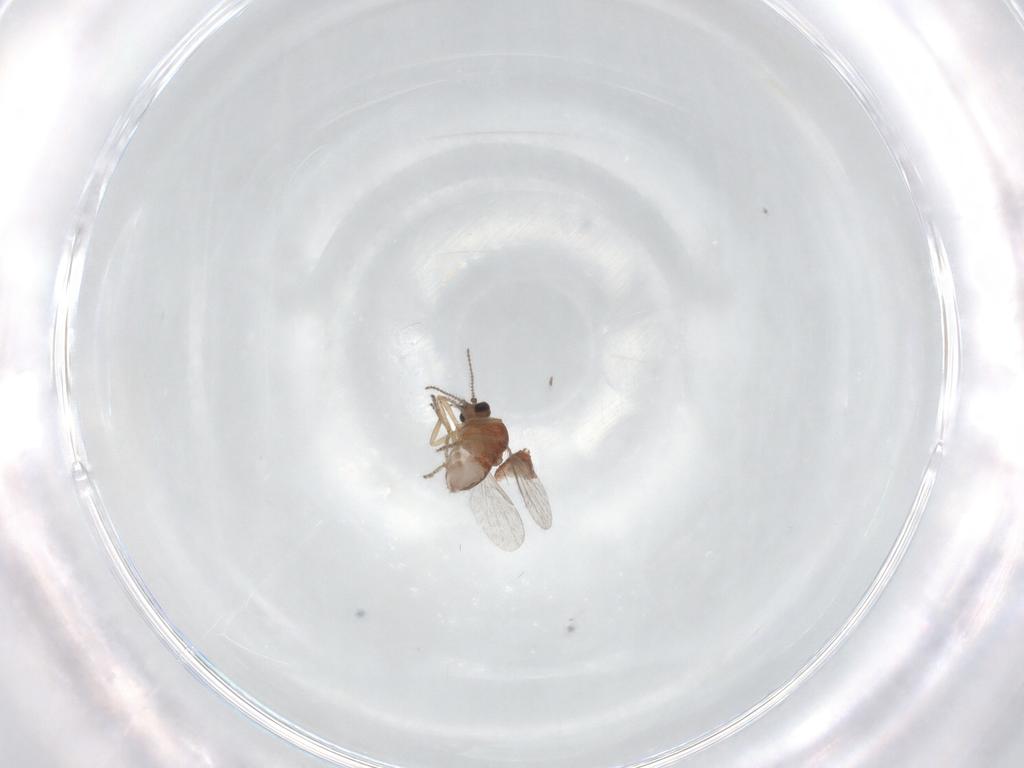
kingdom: Animalia
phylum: Arthropoda
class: Insecta
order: Diptera
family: Ceratopogonidae
